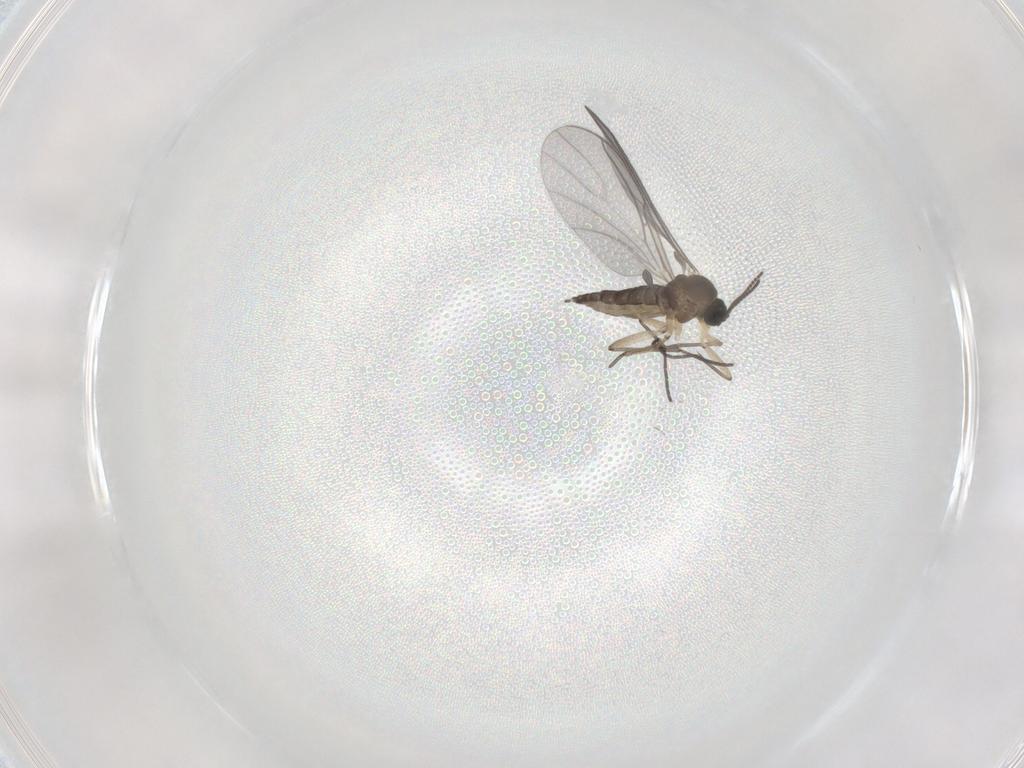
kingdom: Animalia
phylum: Arthropoda
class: Insecta
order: Diptera
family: Sciaridae
